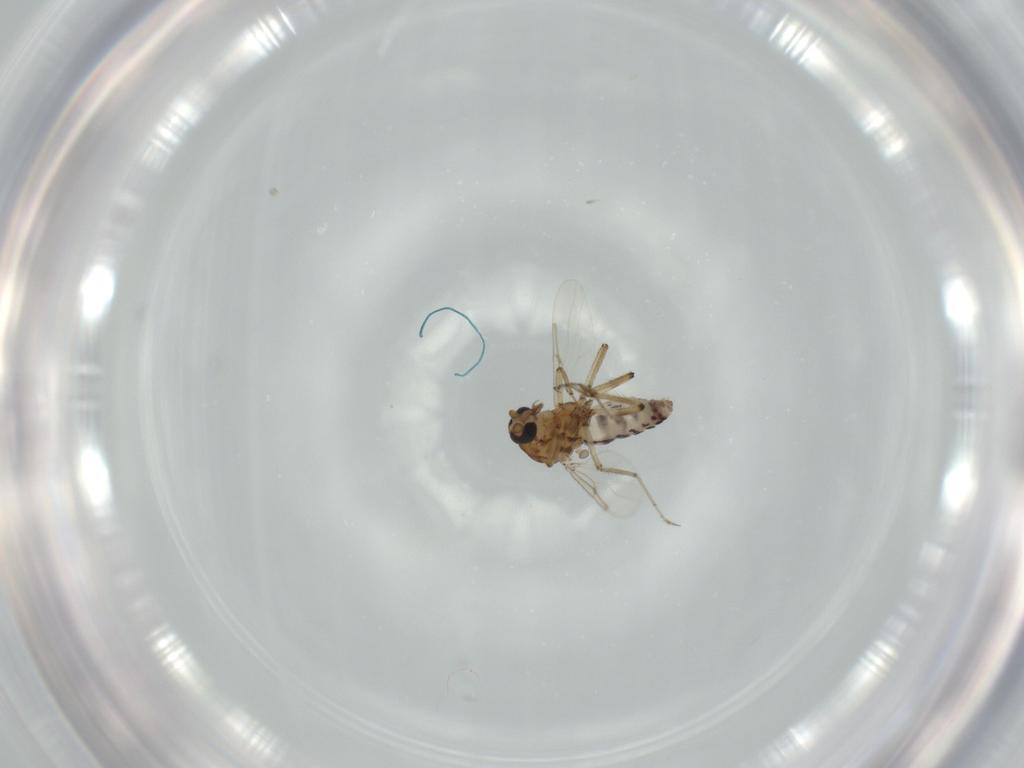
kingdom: Animalia
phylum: Arthropoda
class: Insecta
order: Diptera
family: Ceratopogonidae
